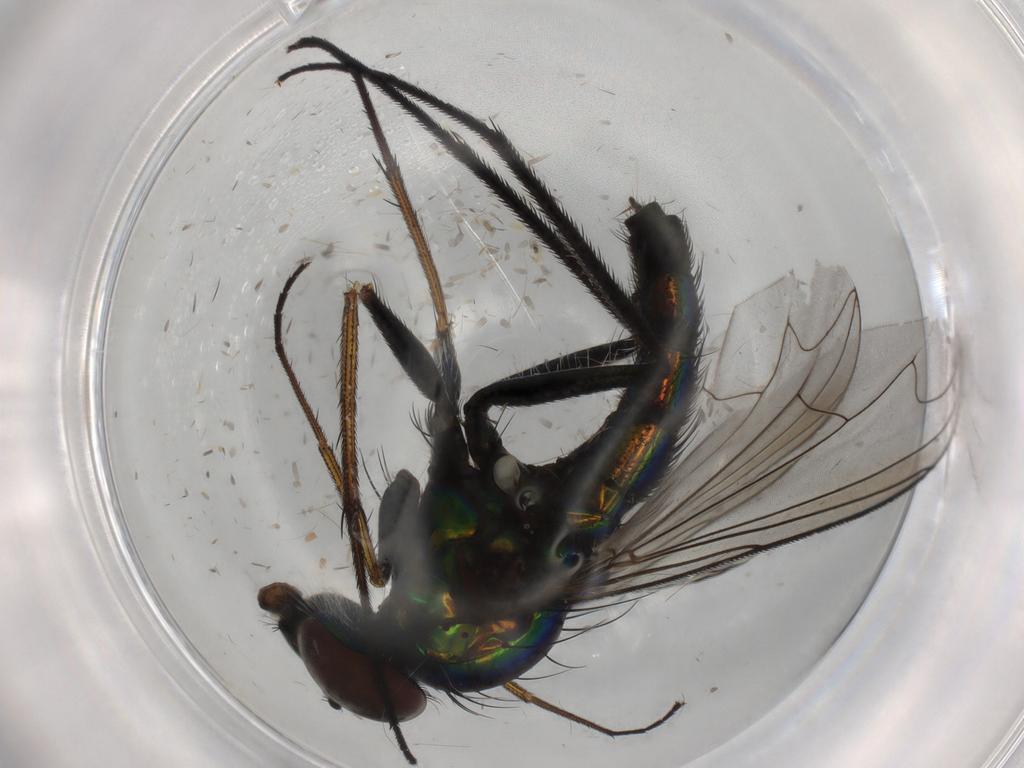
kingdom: Animalia
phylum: Arthropoda
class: Insecta
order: Diptera
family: Dolichopodidae
